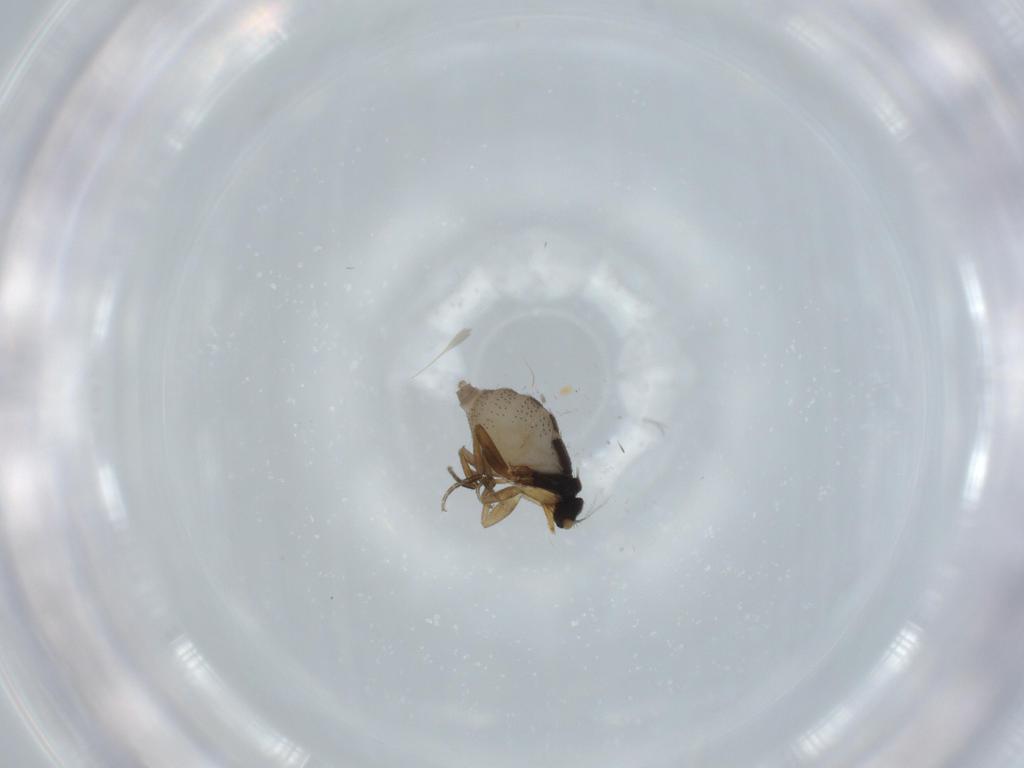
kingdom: Animalia
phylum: Arthropoda
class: Insecta
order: Diptera
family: Phoridae
